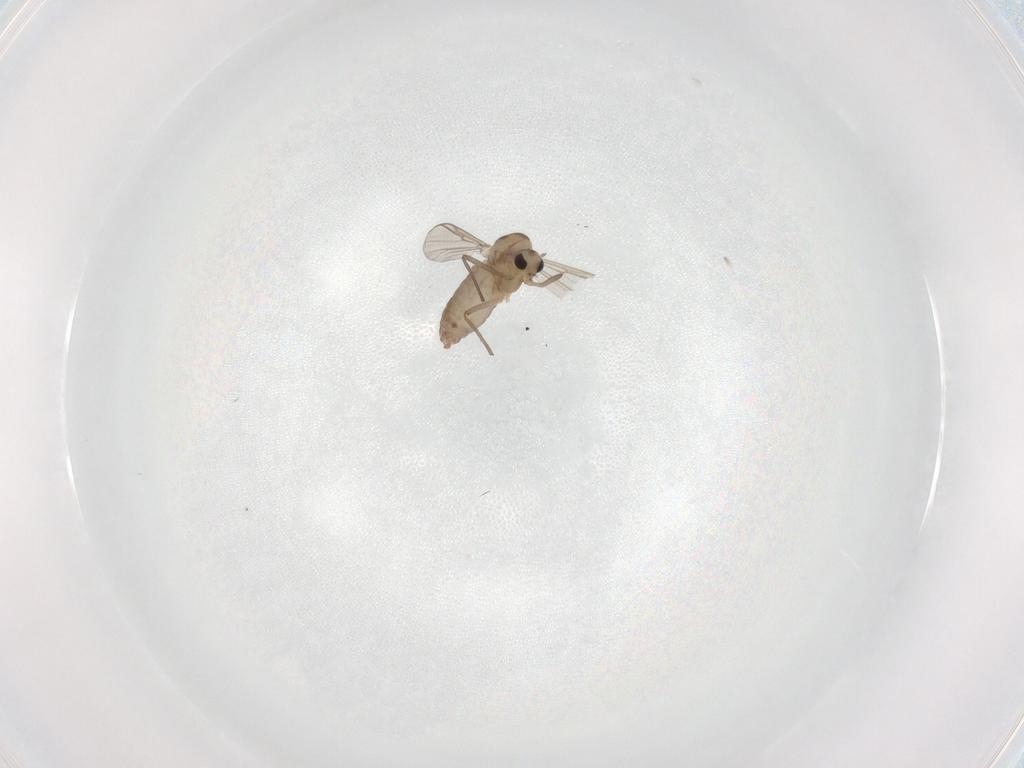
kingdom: Animalia
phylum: Arthropoda
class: Insecta
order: Diptera
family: Chironomidae
